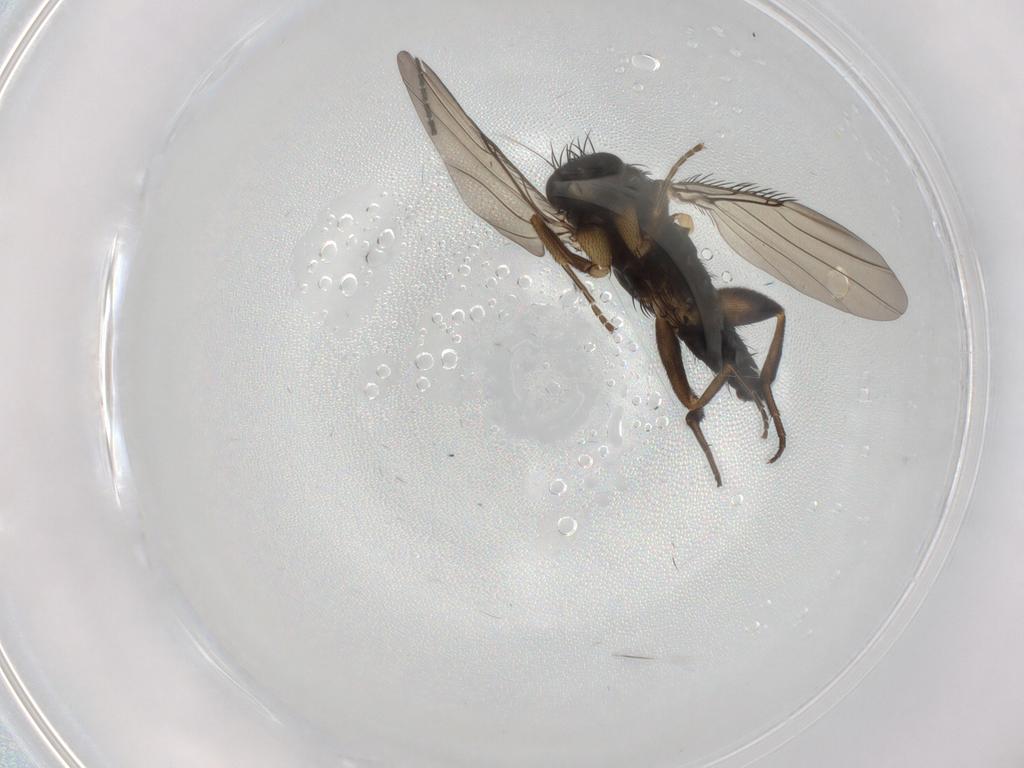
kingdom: Animalia
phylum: Arthropoda
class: Insecta
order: Diptera
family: Phoridae
